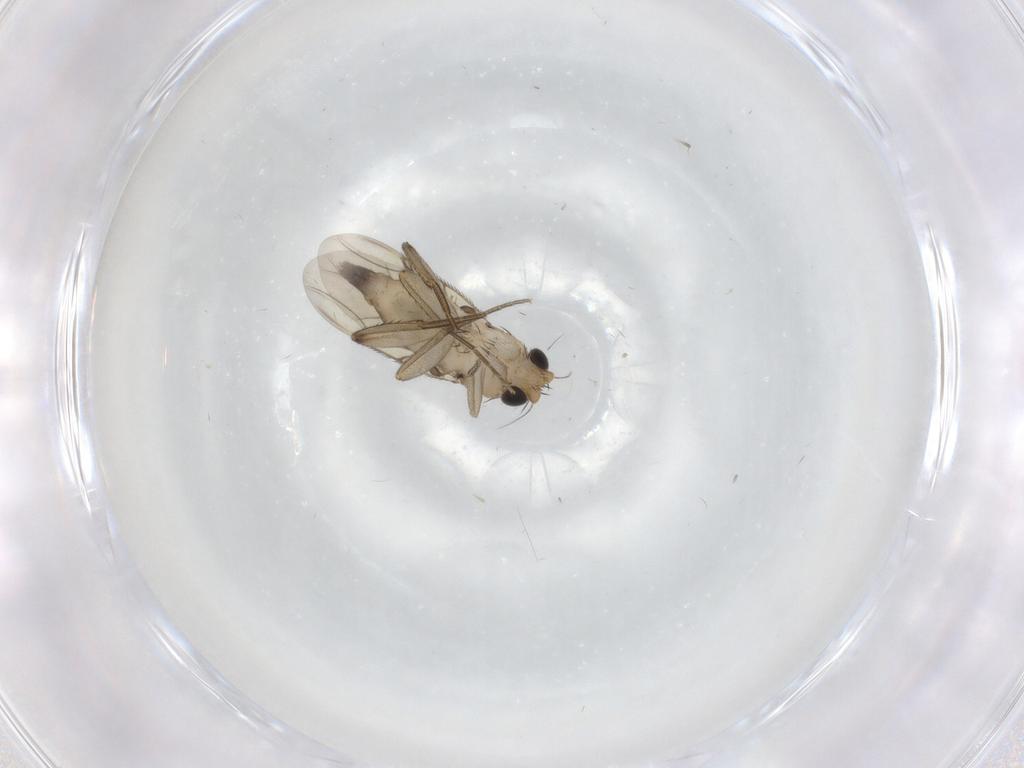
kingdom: Animalia
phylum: Arthropoda
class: Insecta
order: Diptera
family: Phoridae
